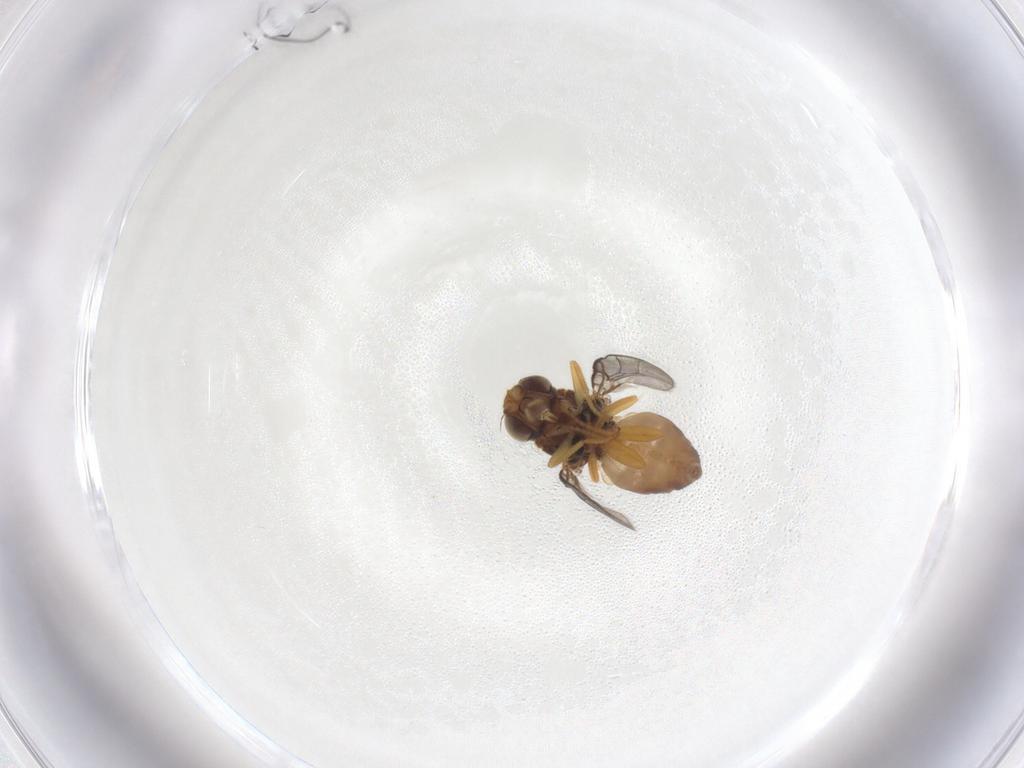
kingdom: Animalia
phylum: Arthropoda
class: Insecta
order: Diptera
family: Chloropidae
